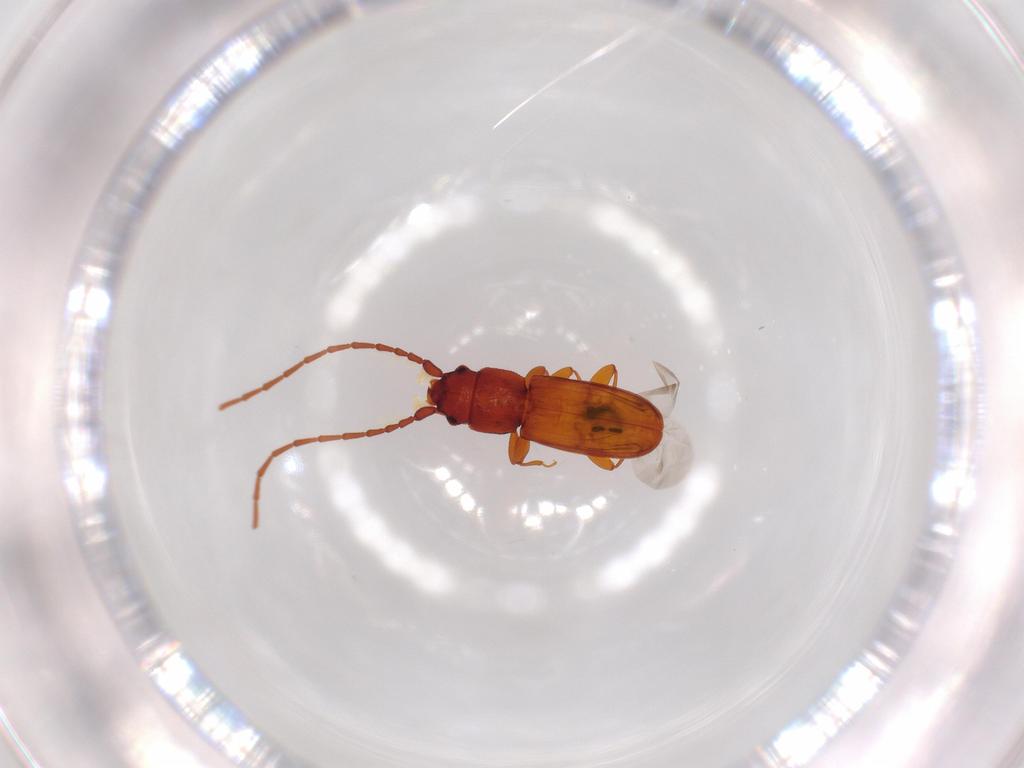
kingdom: Animalia
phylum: Arthropoda
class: Insecta
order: Coleoptera
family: Laemophloeidae
